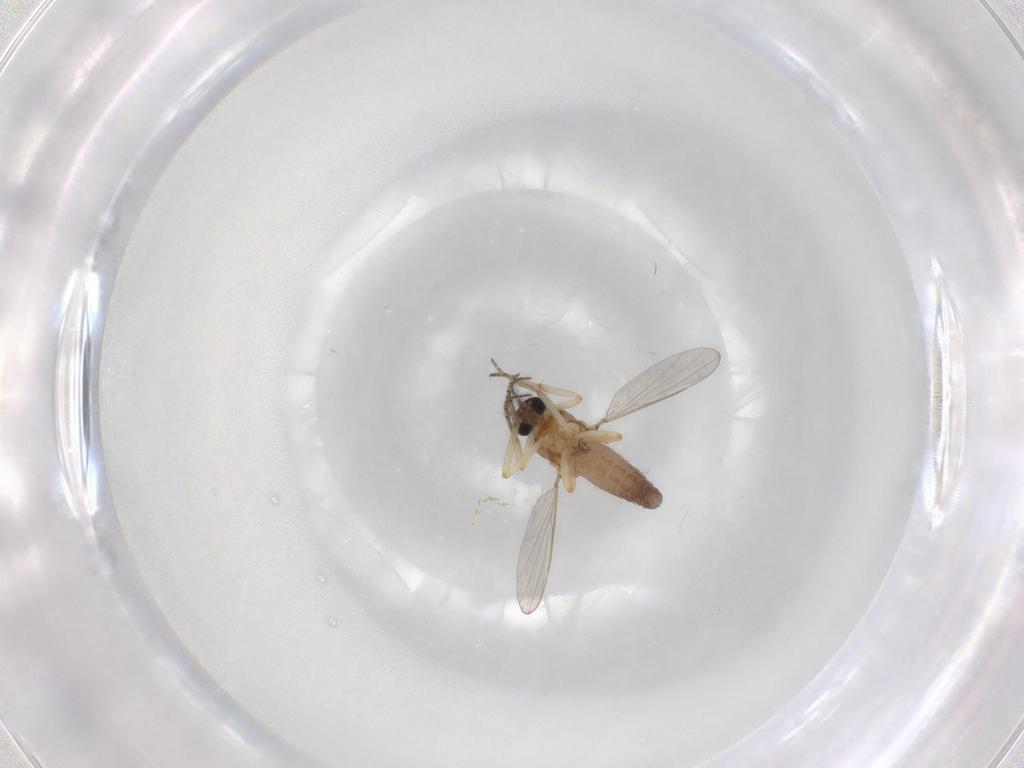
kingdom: Animalia
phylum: Arthropoda
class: Insecta
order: Diptera
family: Ceratopogonidae
